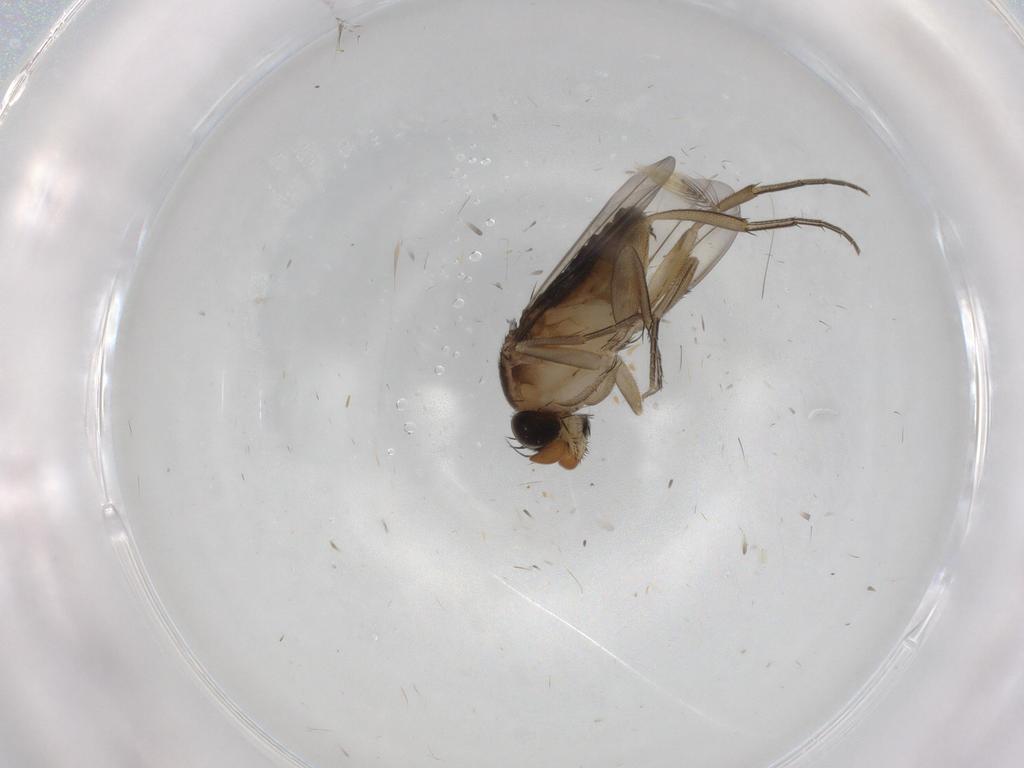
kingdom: Animalia
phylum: Arthropoda
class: Insecta
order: Diptera
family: Phoridae
